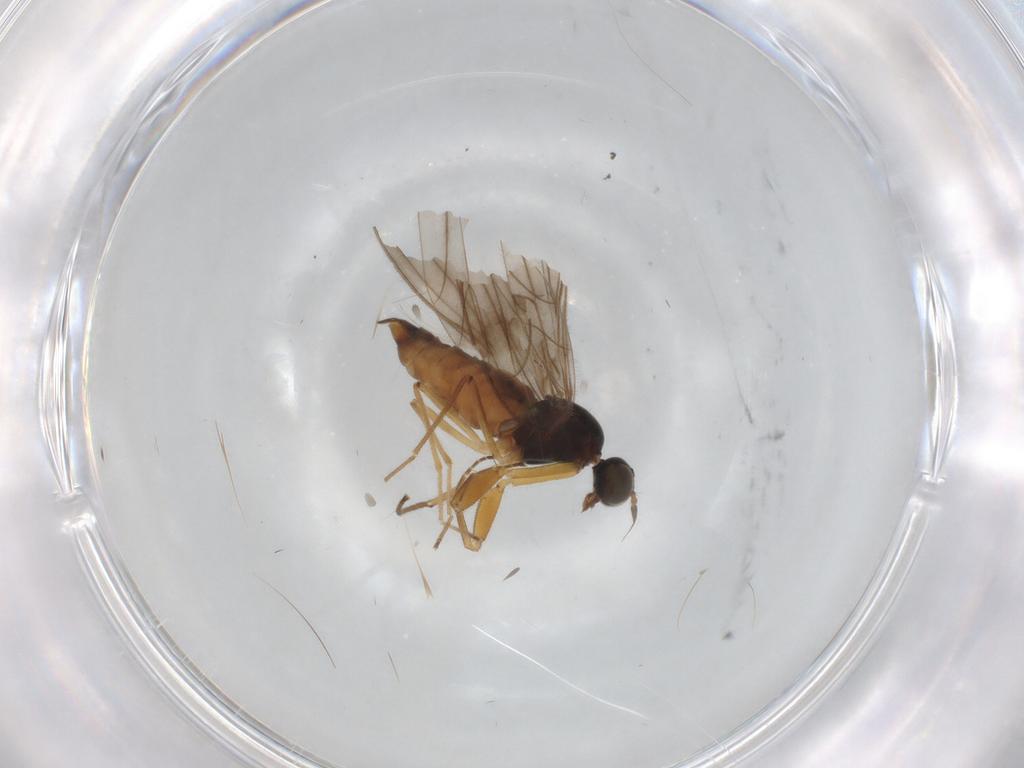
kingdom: Animalia
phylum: Arthropoda
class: Insecta
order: Diptera
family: Empididae
